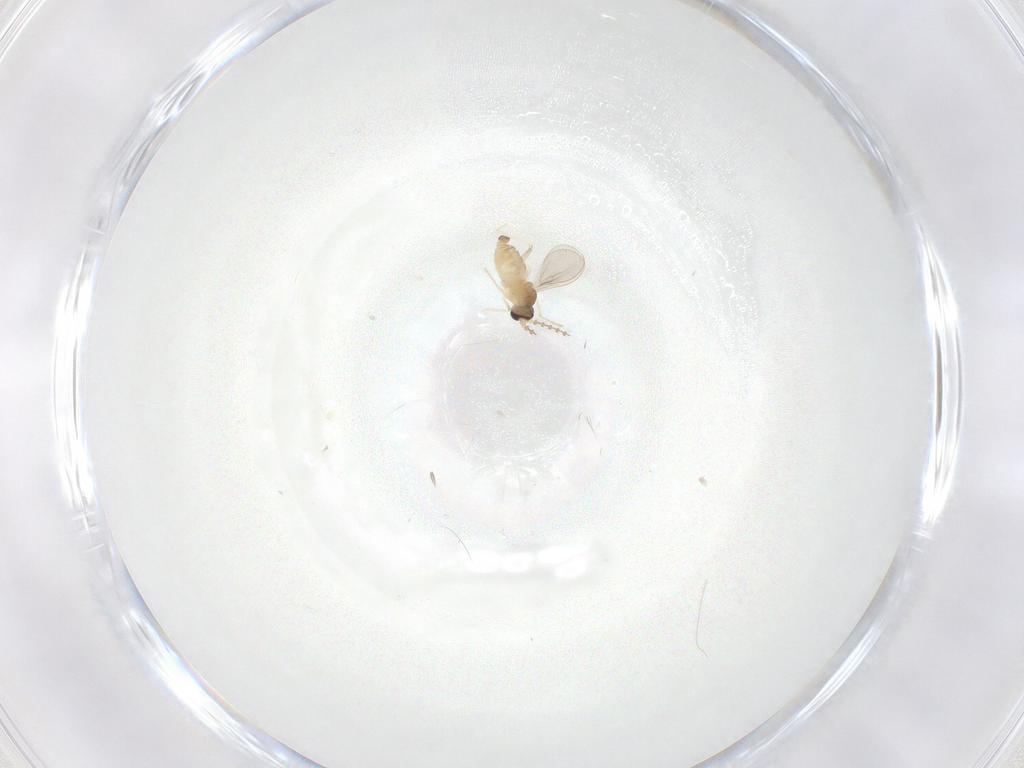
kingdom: Animalia
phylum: Arthropoda
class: Insecta
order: Diptera
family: Cecidomyiidae
